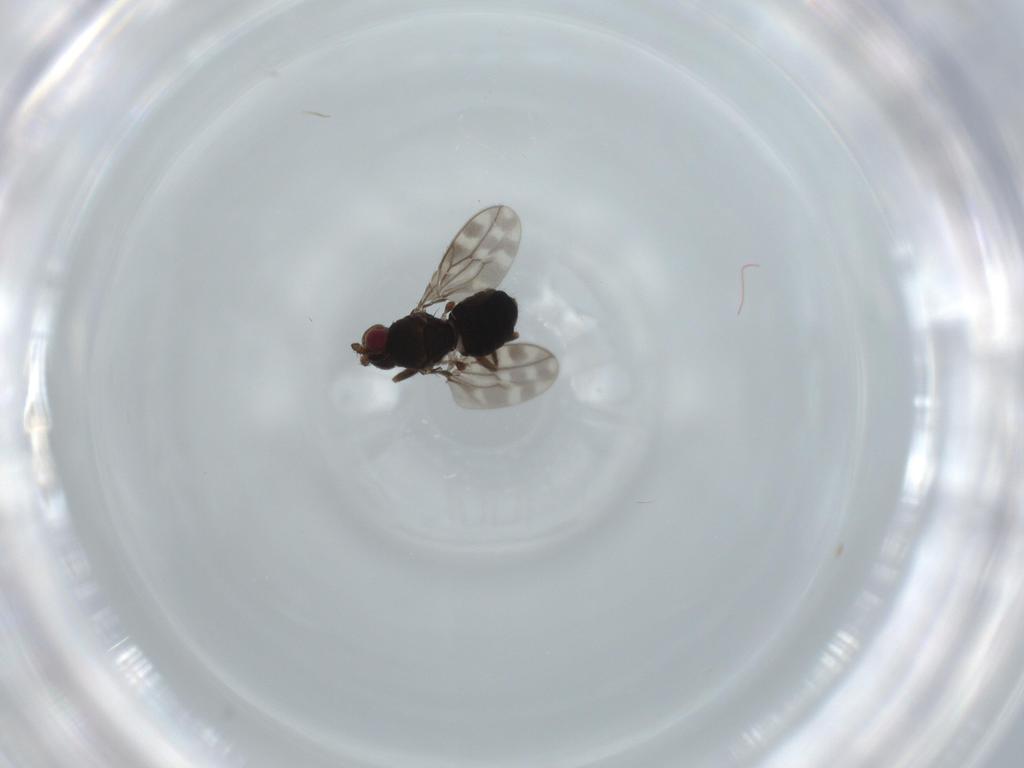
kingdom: Animalia
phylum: Arthropoda
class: Insecta
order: Diptera
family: Sphaeroceridae
